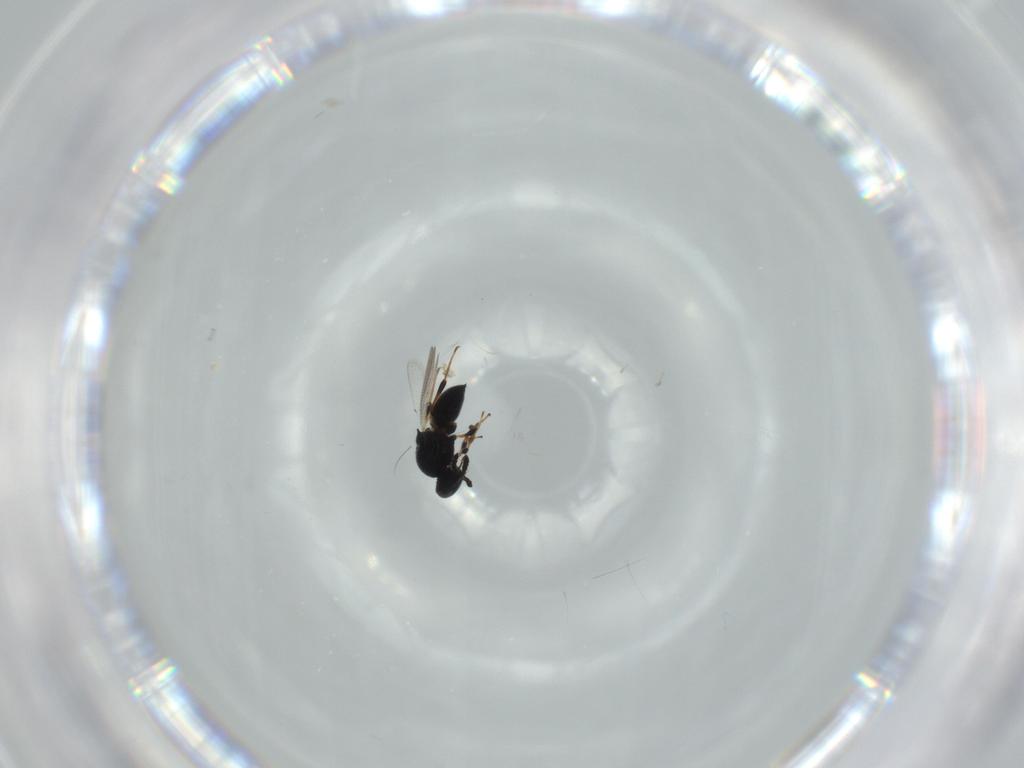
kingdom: Animalia
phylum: Arthropoda
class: Insecta
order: Hymenoptera
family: Platygastridae
